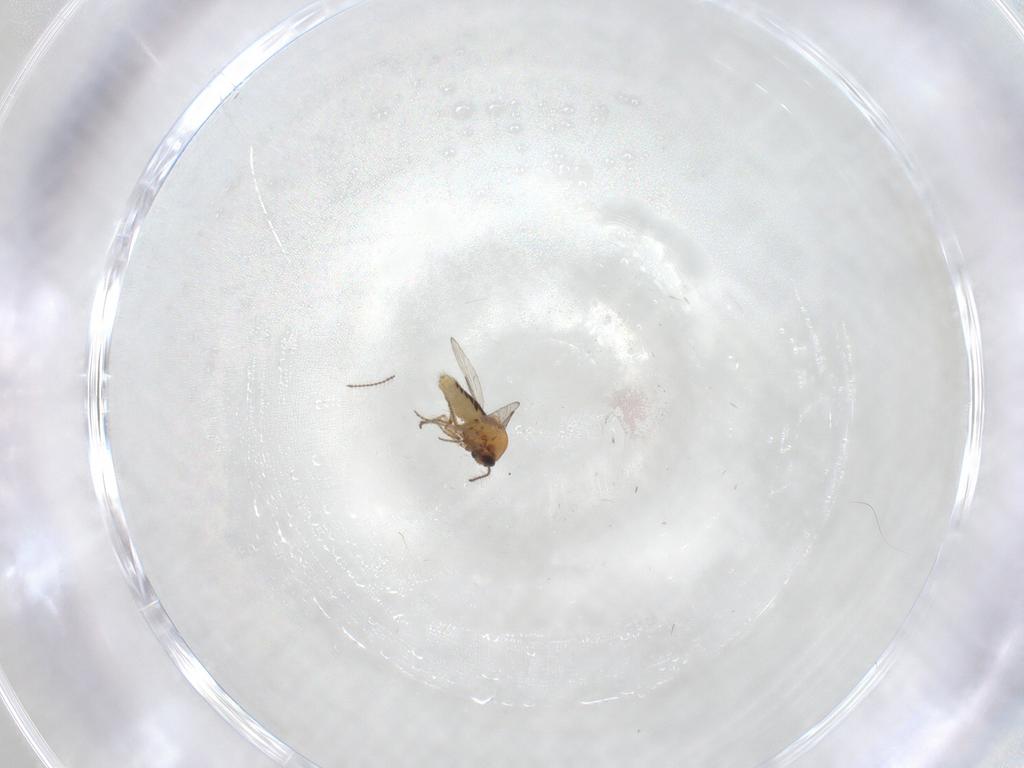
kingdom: Animalia
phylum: Arthropoda
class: Insecta
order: Diptera
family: Ceratopogonidae
